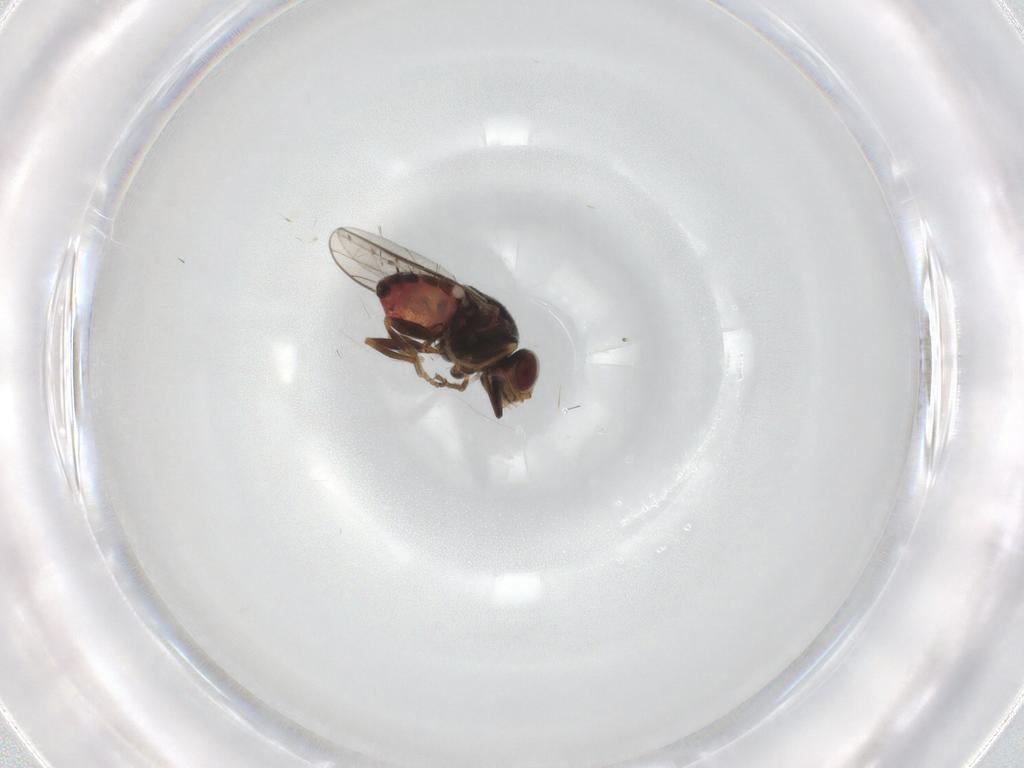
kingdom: Animalia
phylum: Arthropoda
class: Insecta
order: Diptera
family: Chloropidae
